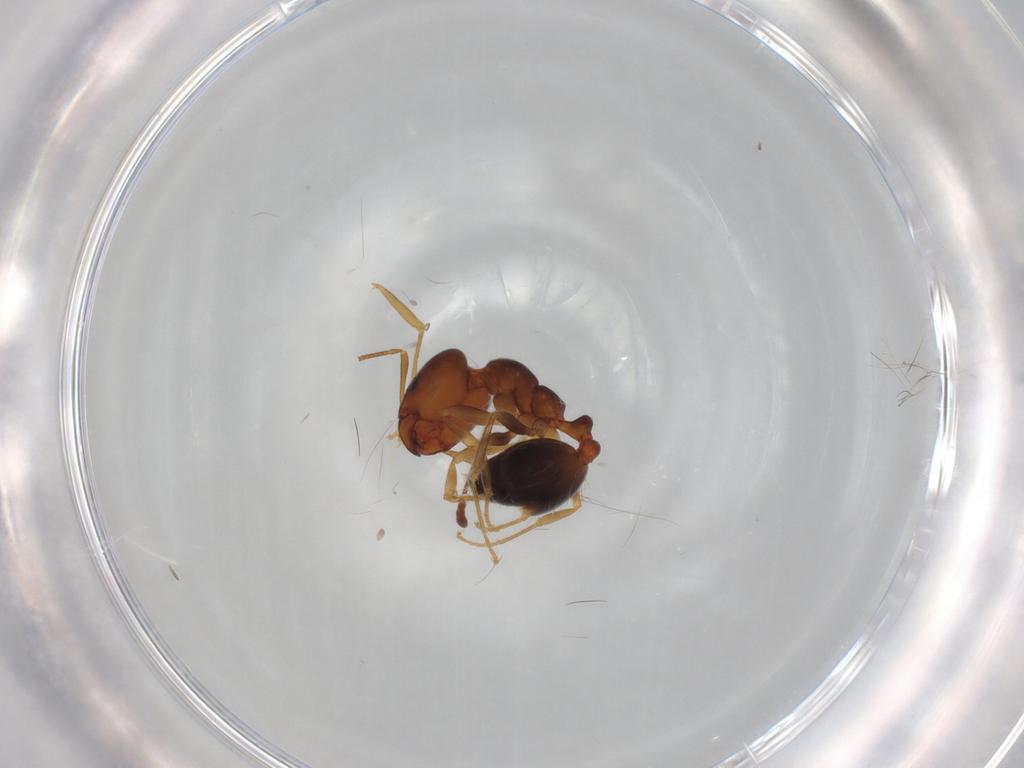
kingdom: Animalia
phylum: Arthropoda
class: Insecta
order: Hymenoptera
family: Formicidae
